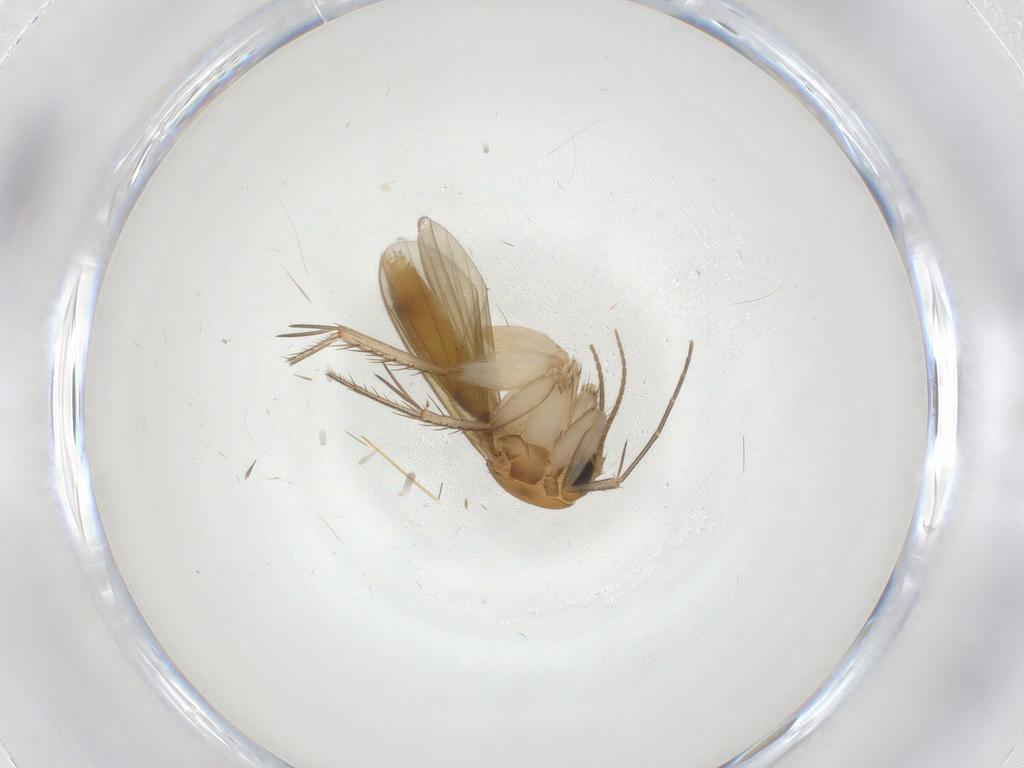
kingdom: Animalia
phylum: Arthropoda
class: Insecta
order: Diptera
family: Mycetophilidae
